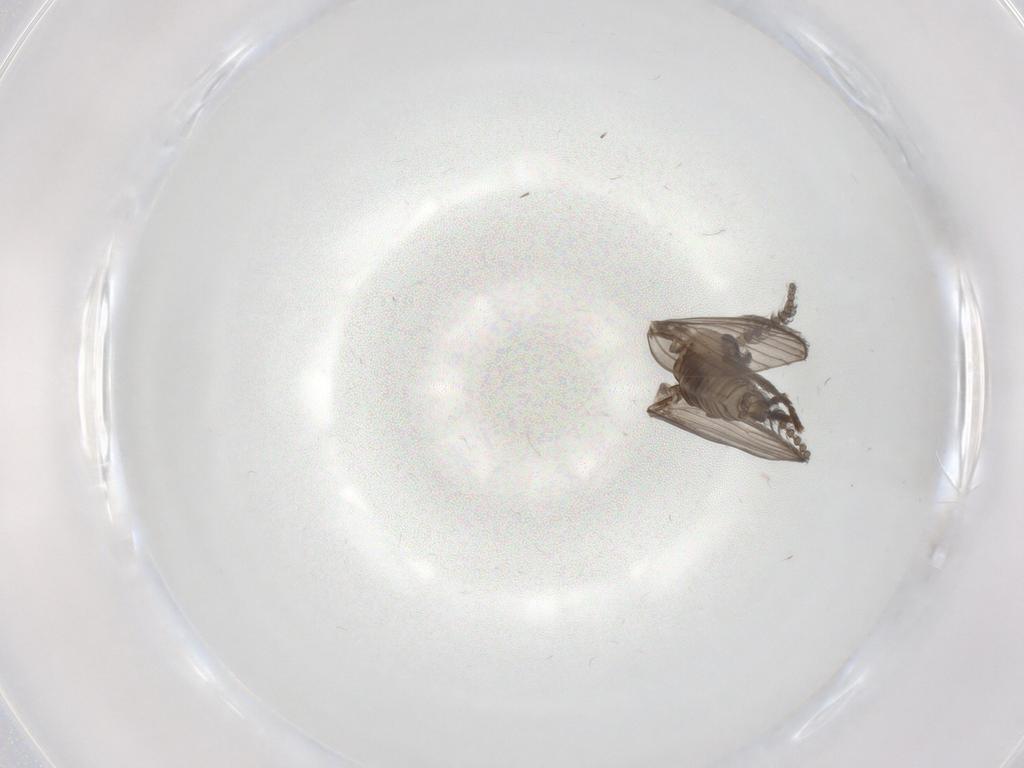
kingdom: Animalia
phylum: Arthropoda
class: Insecta
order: Diptera
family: Psychodidae
